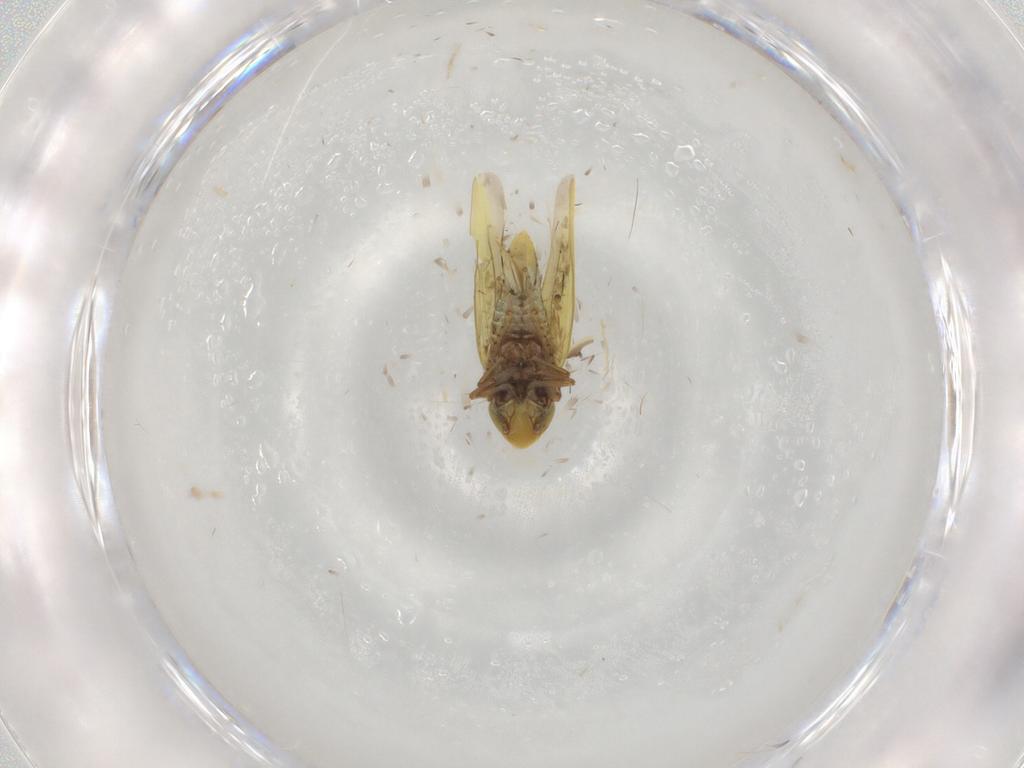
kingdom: Animalia
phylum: Arthropoda
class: Insecta
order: Hemiptera
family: Cicadellidae
